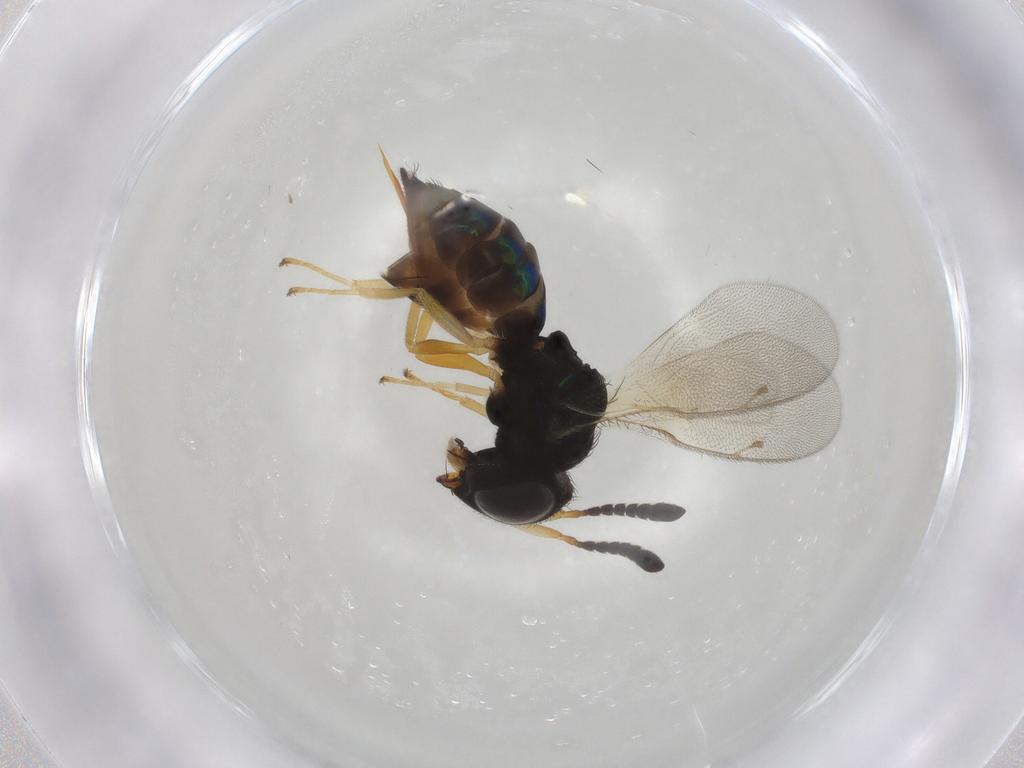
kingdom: Animalia
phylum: Arthropoda
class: Insecta
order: Hymenoptera
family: Pteromalidae
